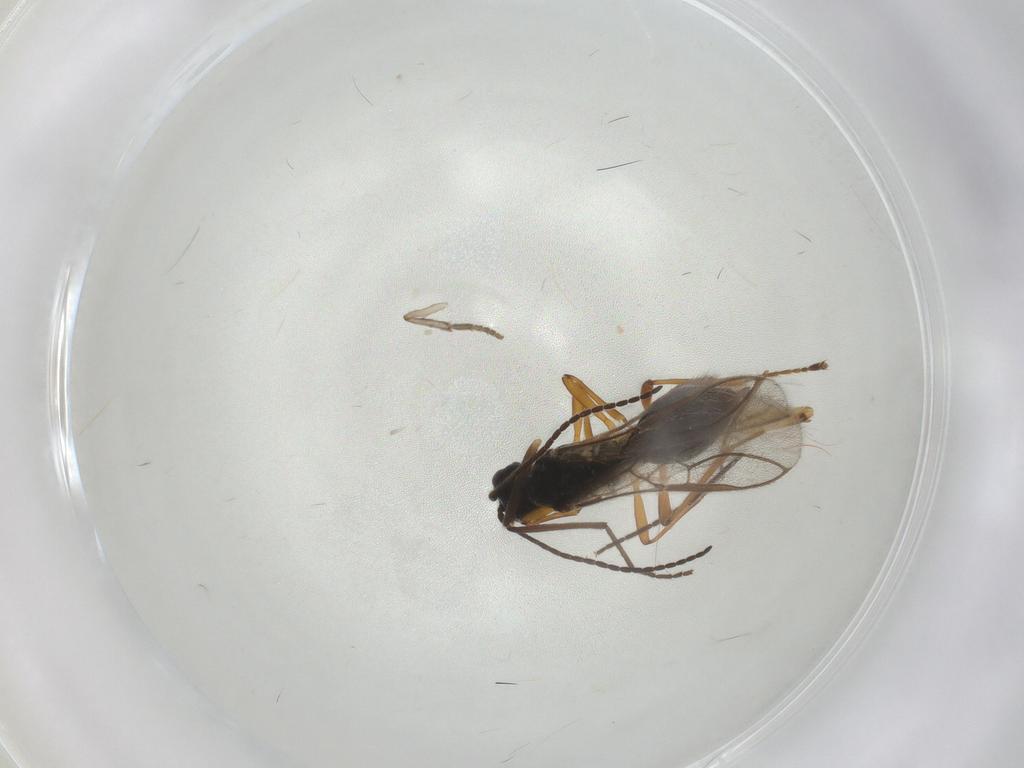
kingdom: Animalia
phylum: Arthropoda
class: Insecta
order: Hymenoptera
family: Braconidae
